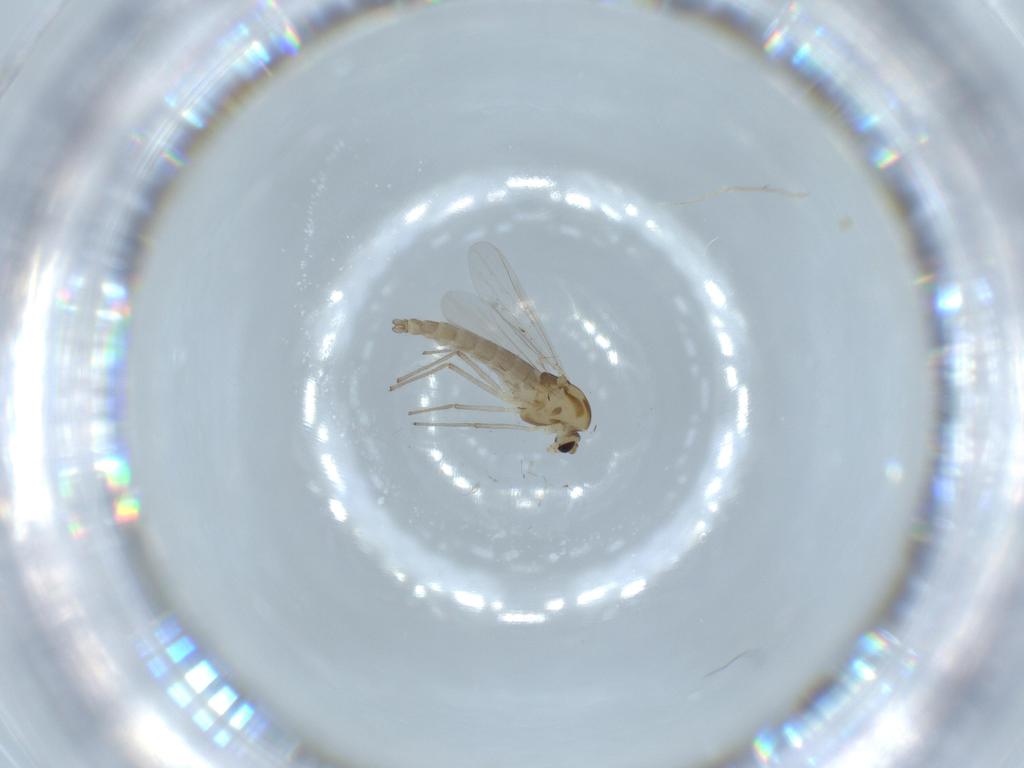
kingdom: Animalia
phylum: Arthropoda
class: Insecta
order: Diptera
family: Chironomidae
